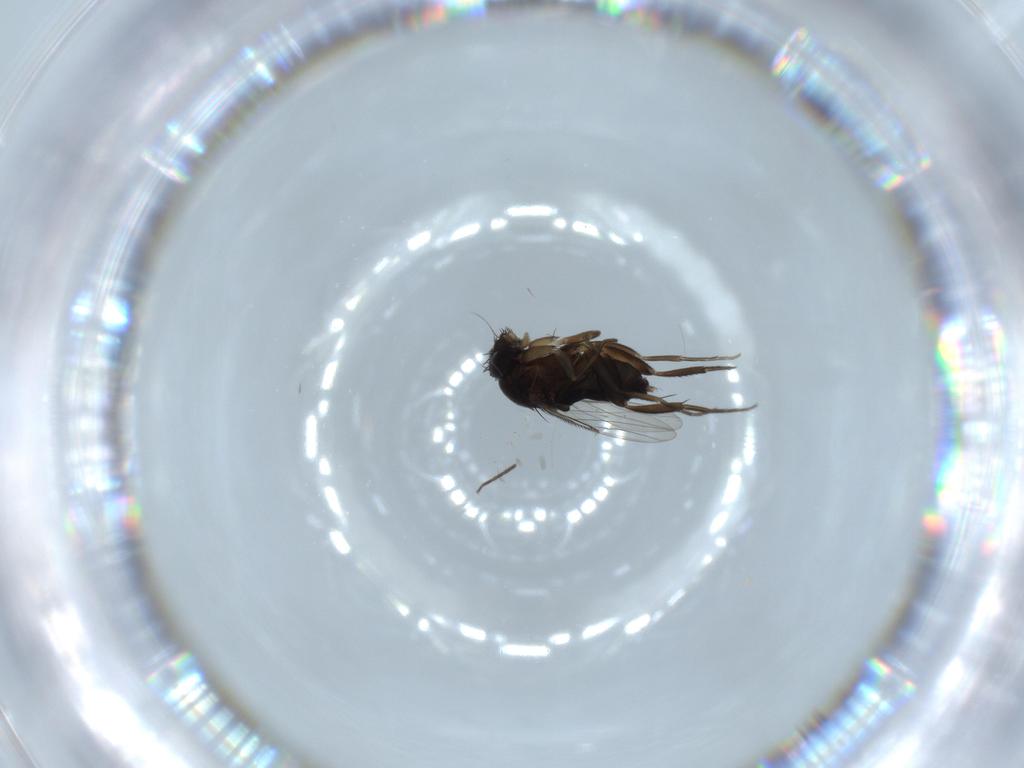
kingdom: Animalia
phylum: Arthropoda
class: Insecta
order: Diptera
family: Phoridae
